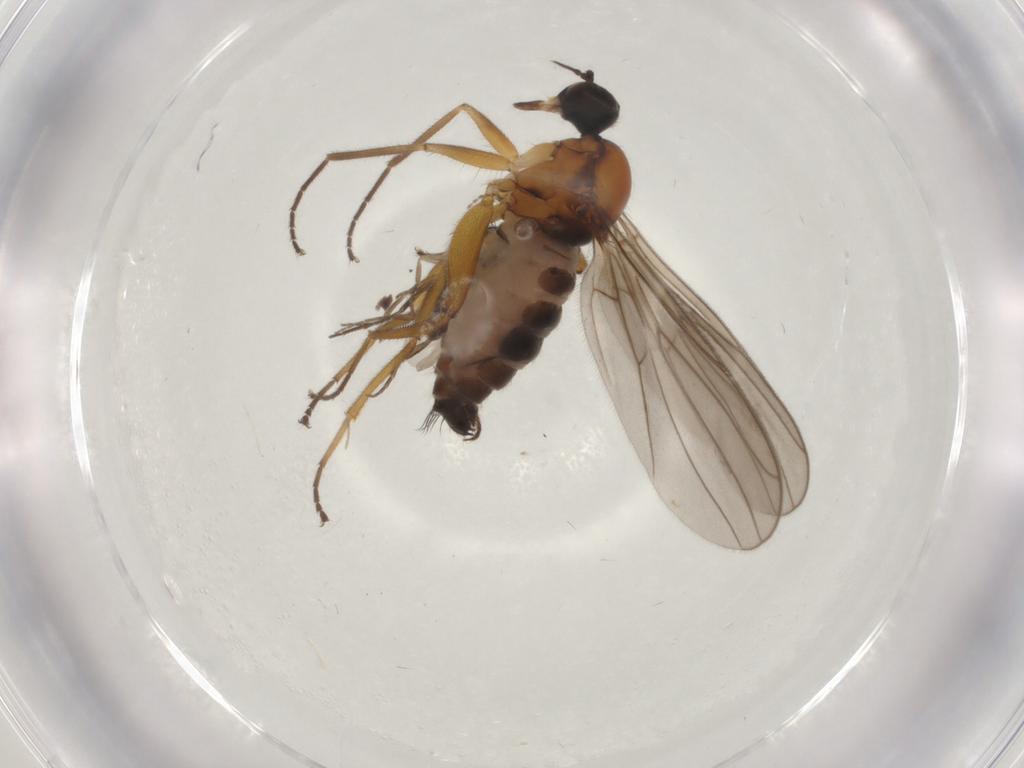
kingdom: Animalia
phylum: Arthropoda
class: Insecta
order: Diptera
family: Hybotidae
